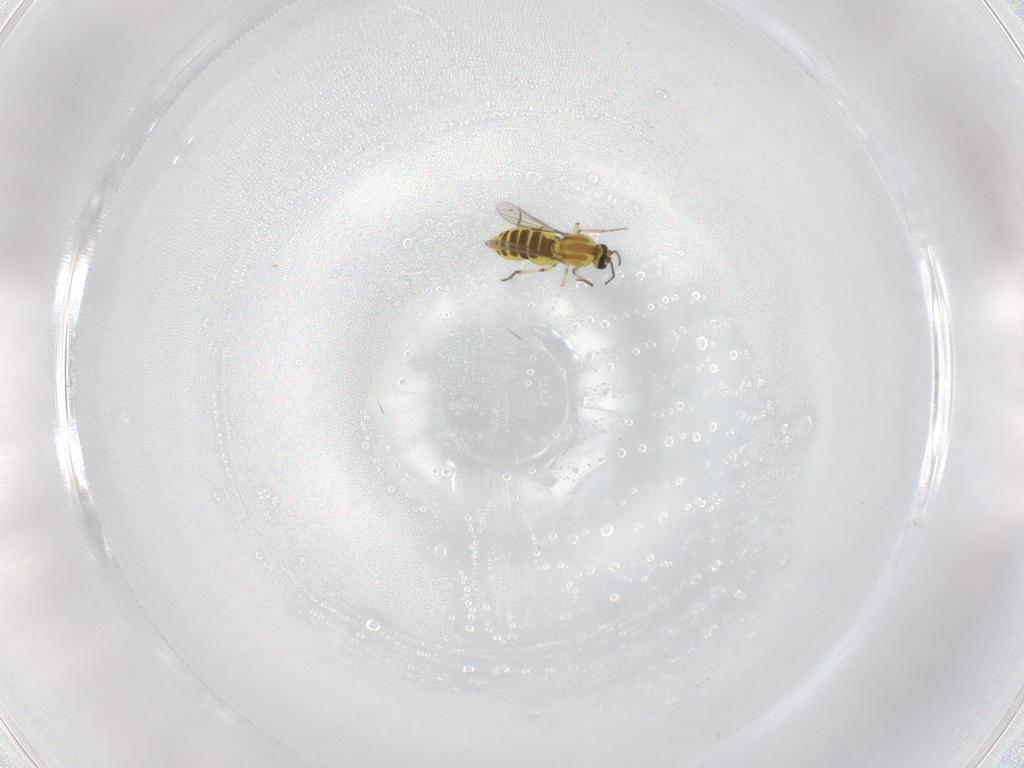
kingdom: Animalia
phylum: Arthropoda
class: Insecta
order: Diptera
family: Ceratopogonidae
